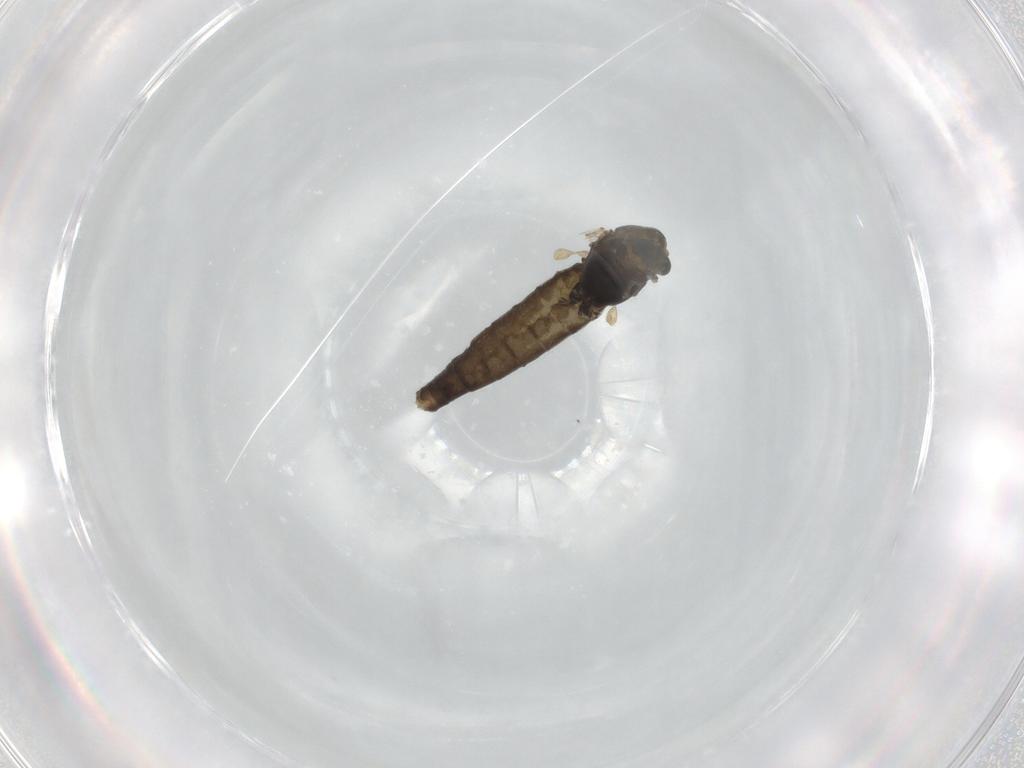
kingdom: Animalia
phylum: Arthropoda
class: Insecta
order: Diptera
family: Chironomidae
